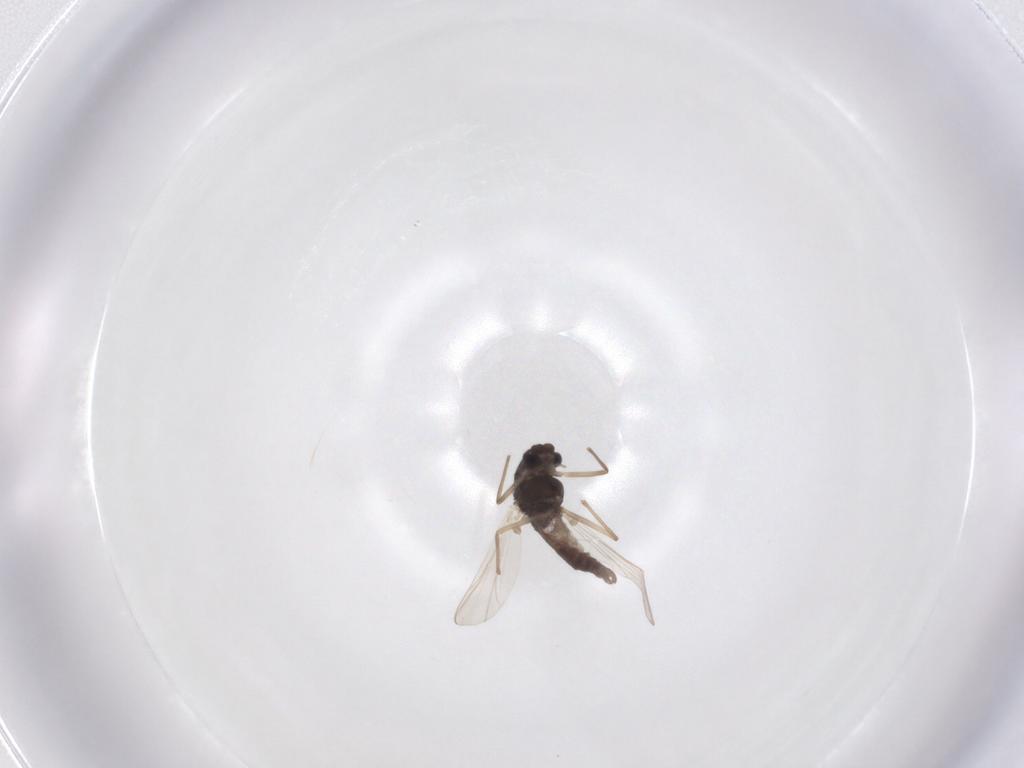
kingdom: Animalia
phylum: Arthropoda
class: Insecta
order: Diptera
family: Chironomidae
